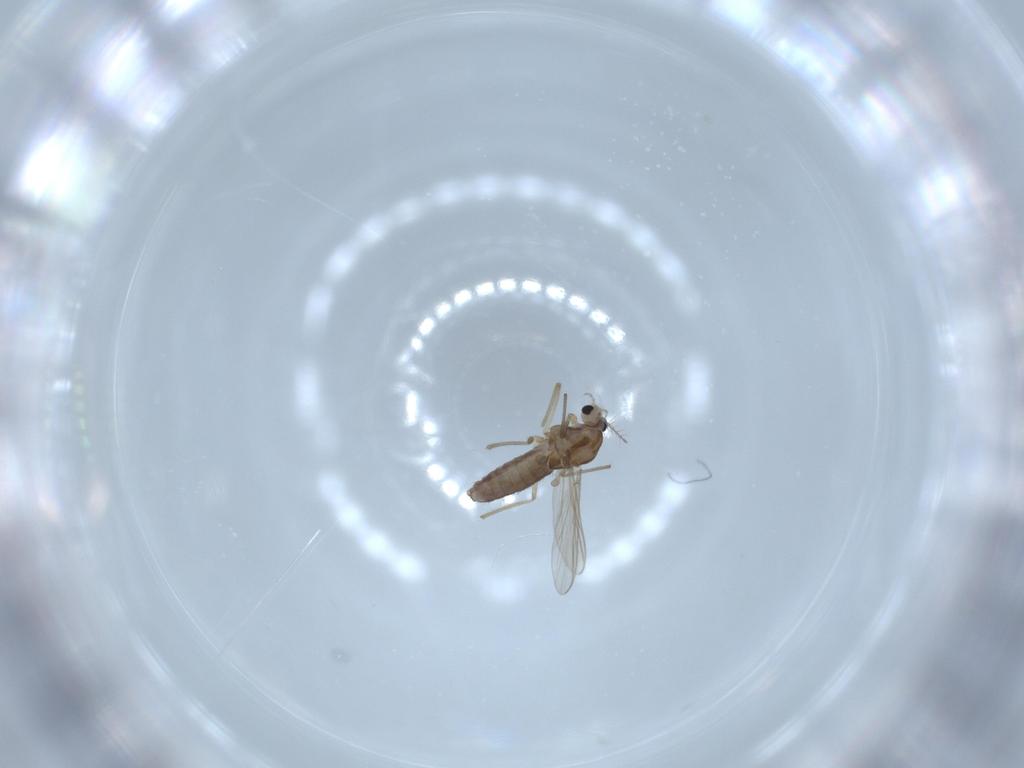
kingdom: Animalia
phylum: Arthropoda
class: Insecta
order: Diptera
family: Chironomidae
